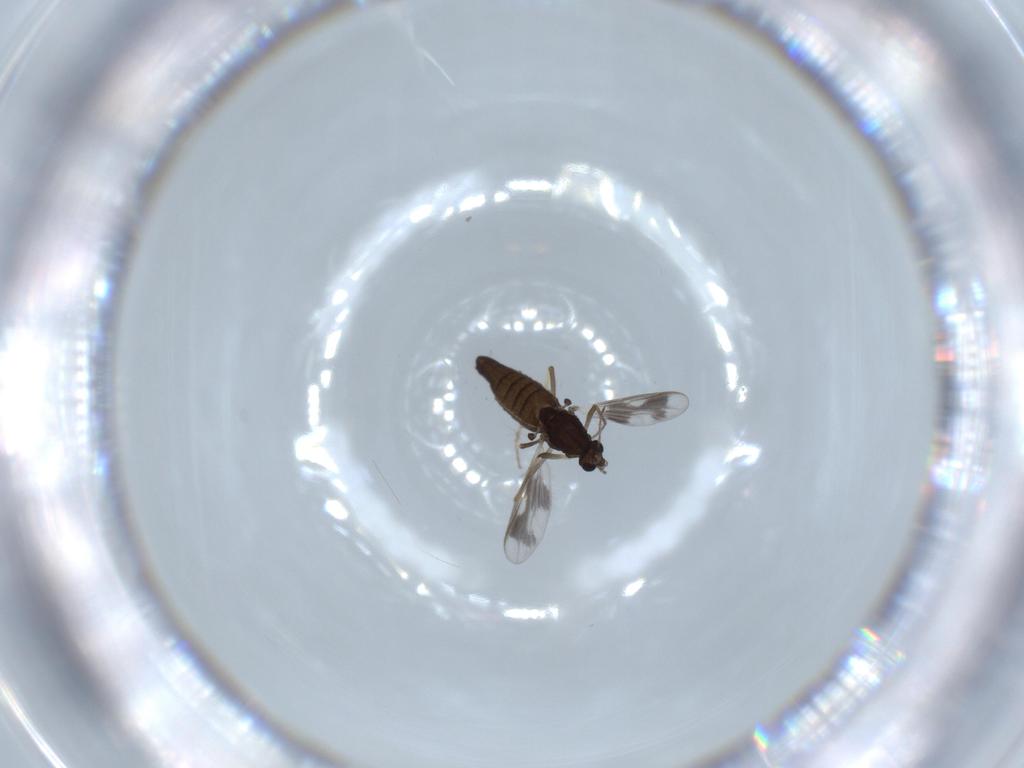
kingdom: Animalia
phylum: Arthropoda
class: Insecta
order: Diptera
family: Chironomidae
